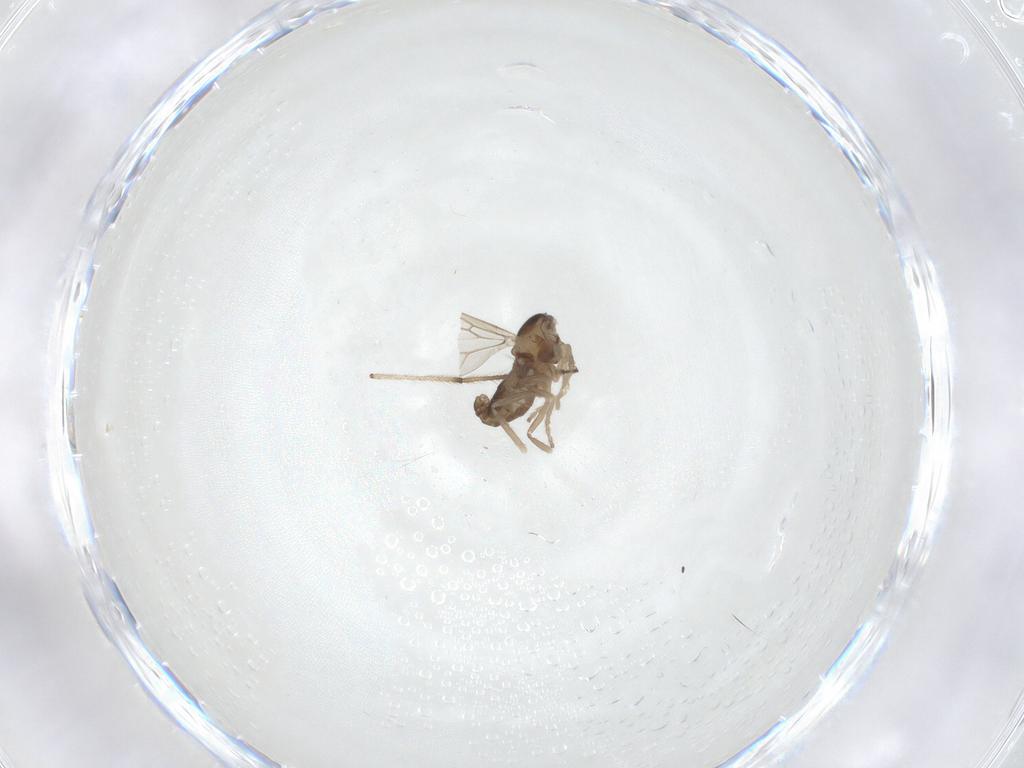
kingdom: Animalia
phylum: Arthropoda
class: Insecta
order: Diptera
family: Cecidomyiidae
